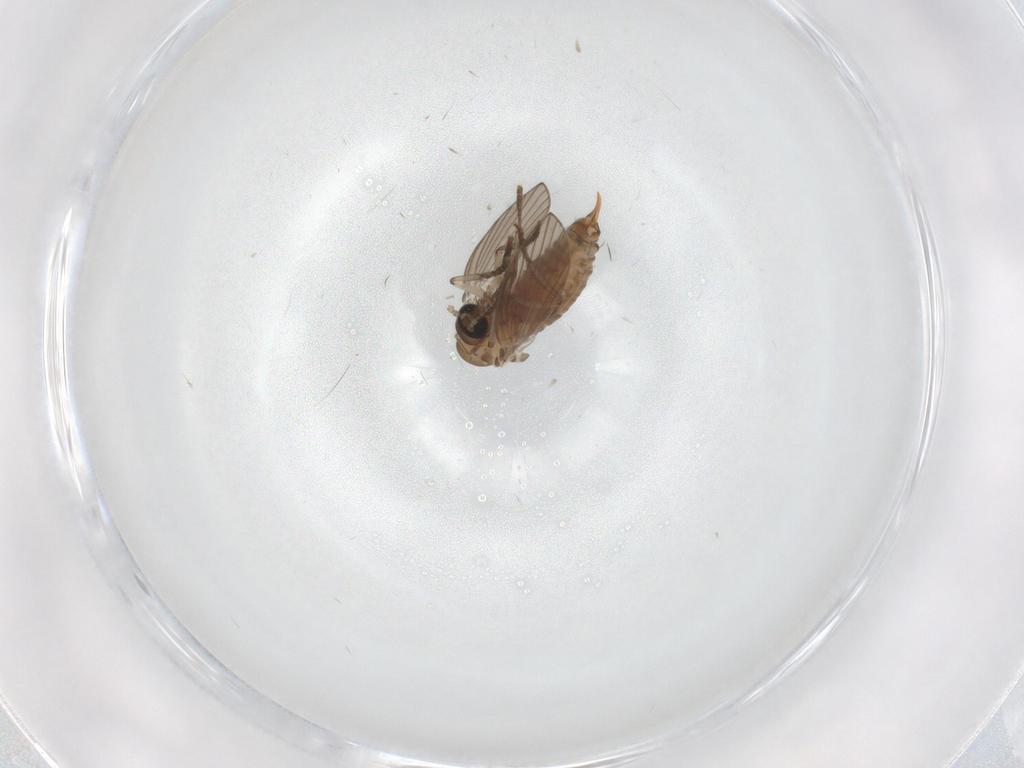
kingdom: Animalia
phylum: Arthropoda
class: Insecta
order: Diptera
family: Psychodidae
